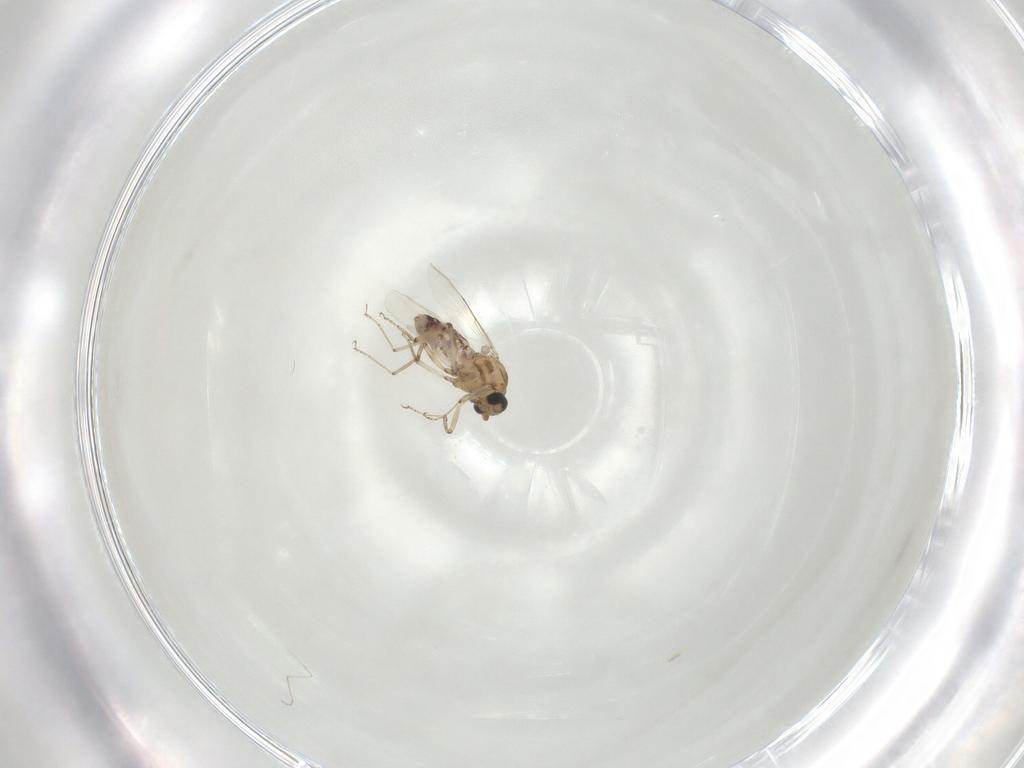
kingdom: Animalia
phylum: Arthropoda
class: Insecta
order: Diptera
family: Ceratopogonidae
